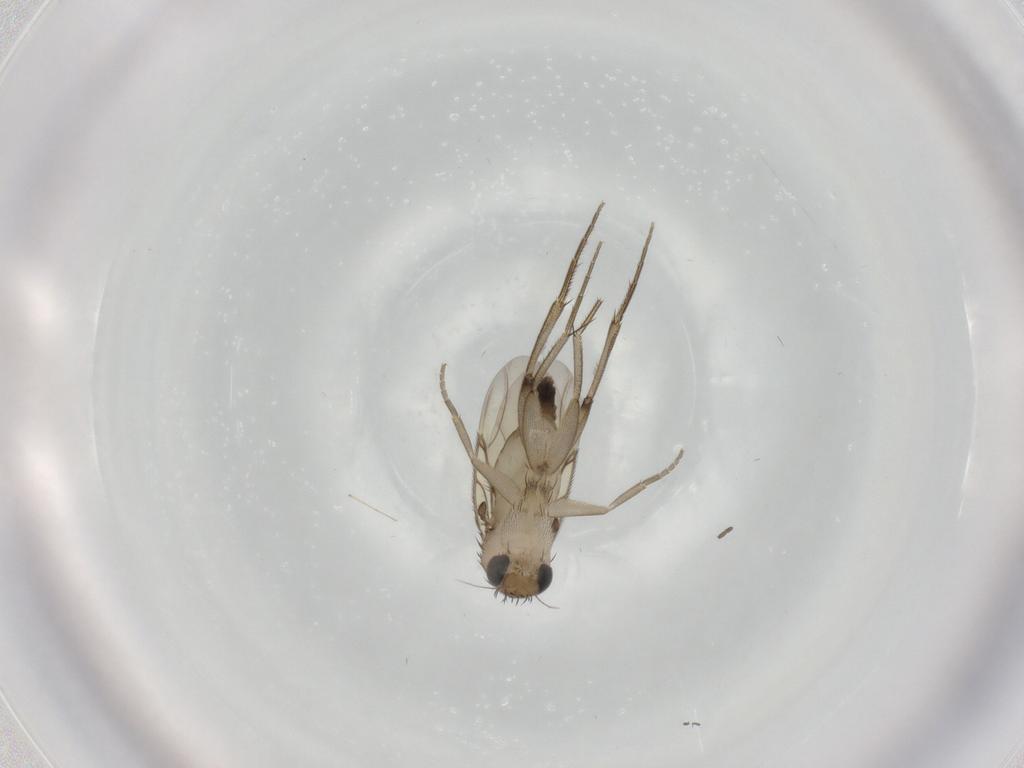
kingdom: Animalia
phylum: Arthropoda
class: Insecta
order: Diptera
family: Phoridae
